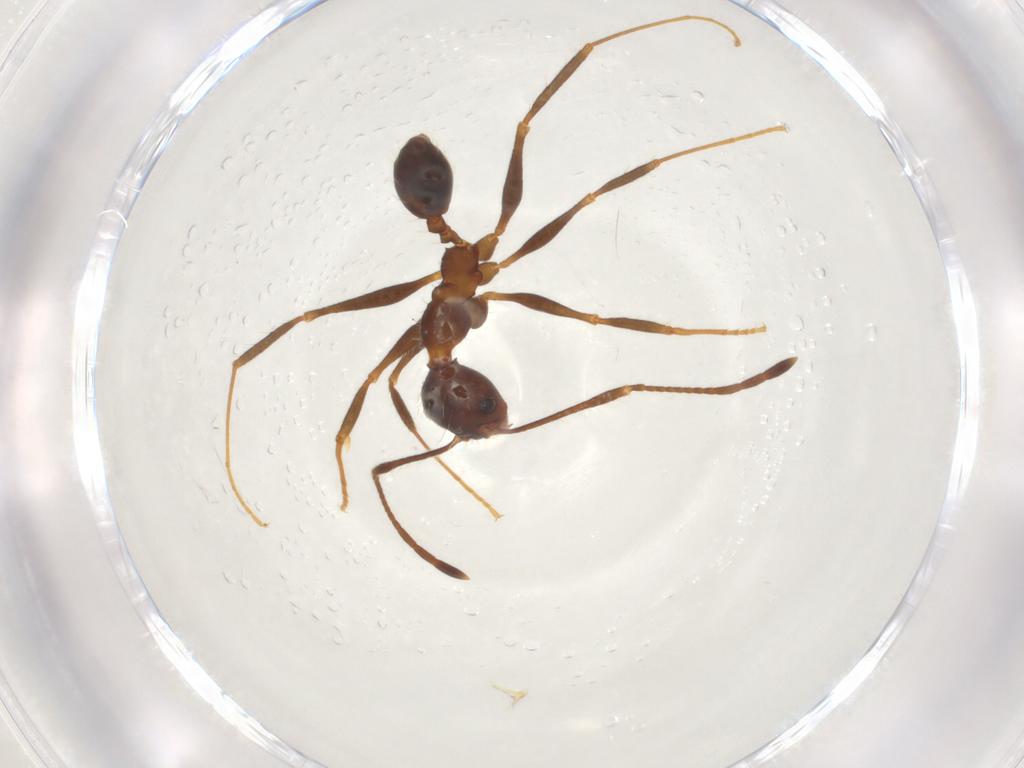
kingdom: Animalia
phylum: Arthropoda
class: Insecta
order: Hymenoptera
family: Formicidae
